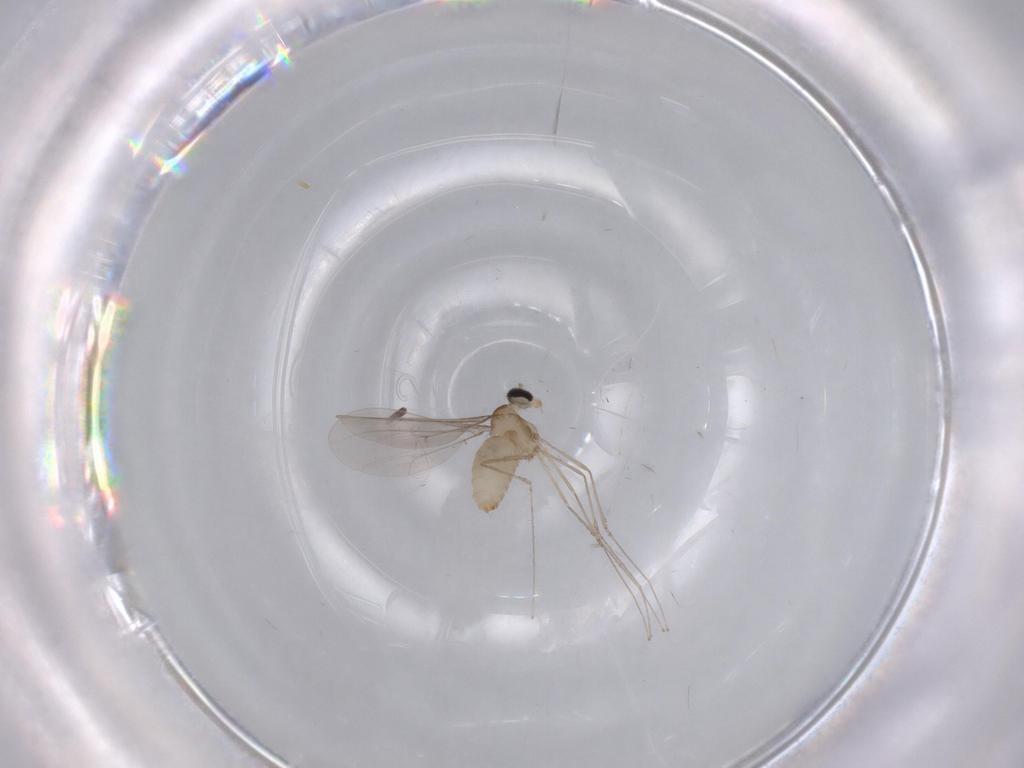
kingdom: Animalia
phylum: Arthropoda
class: Insecta
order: Diptera
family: Cecidomyiidae
